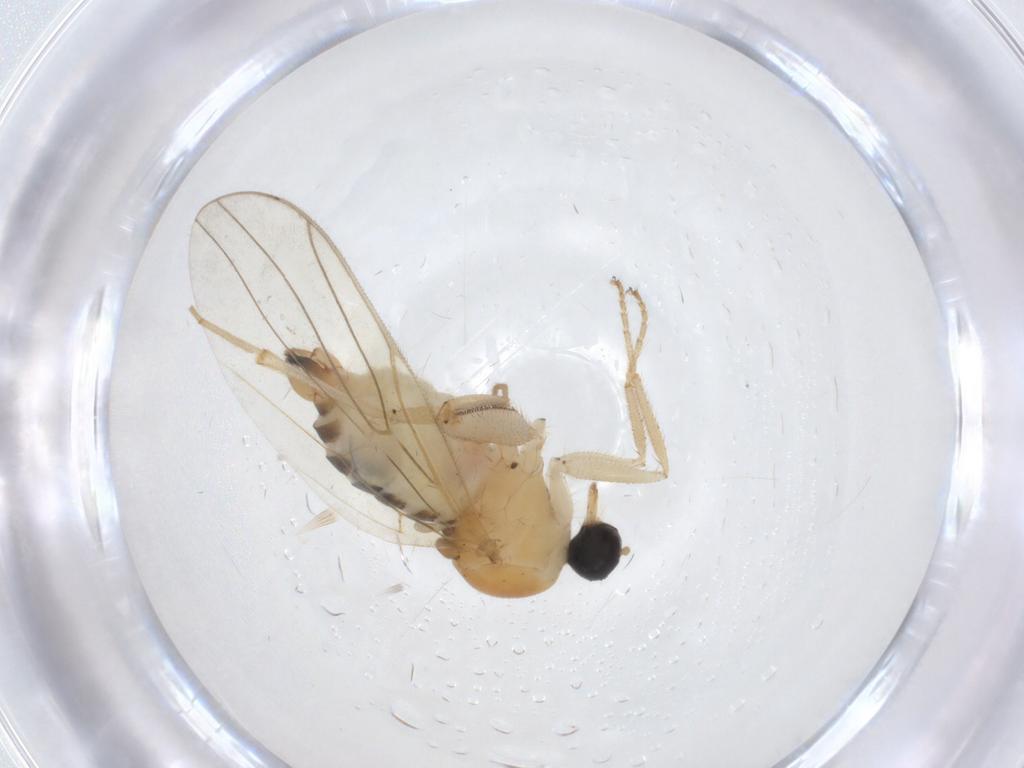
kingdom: Animalia
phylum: Arthropoda
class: Insecta
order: Diptera
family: Hybotidae
